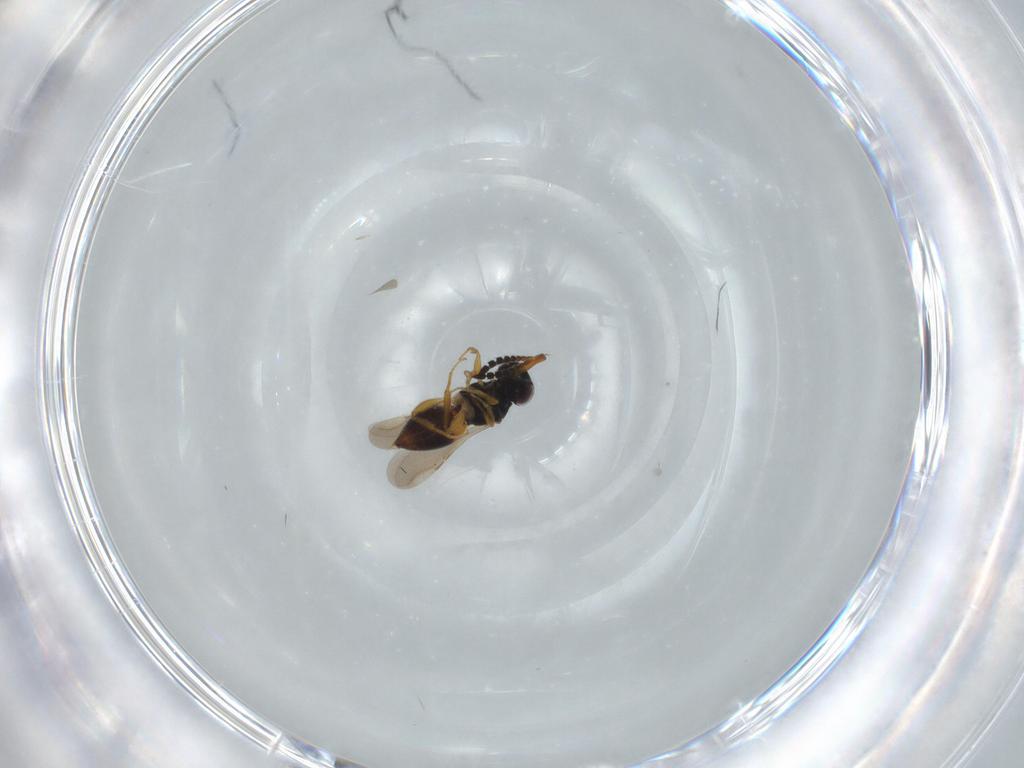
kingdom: Animalia
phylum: Arthropoda
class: Insecta
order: Hymenoptera
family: Ceraphronidae
